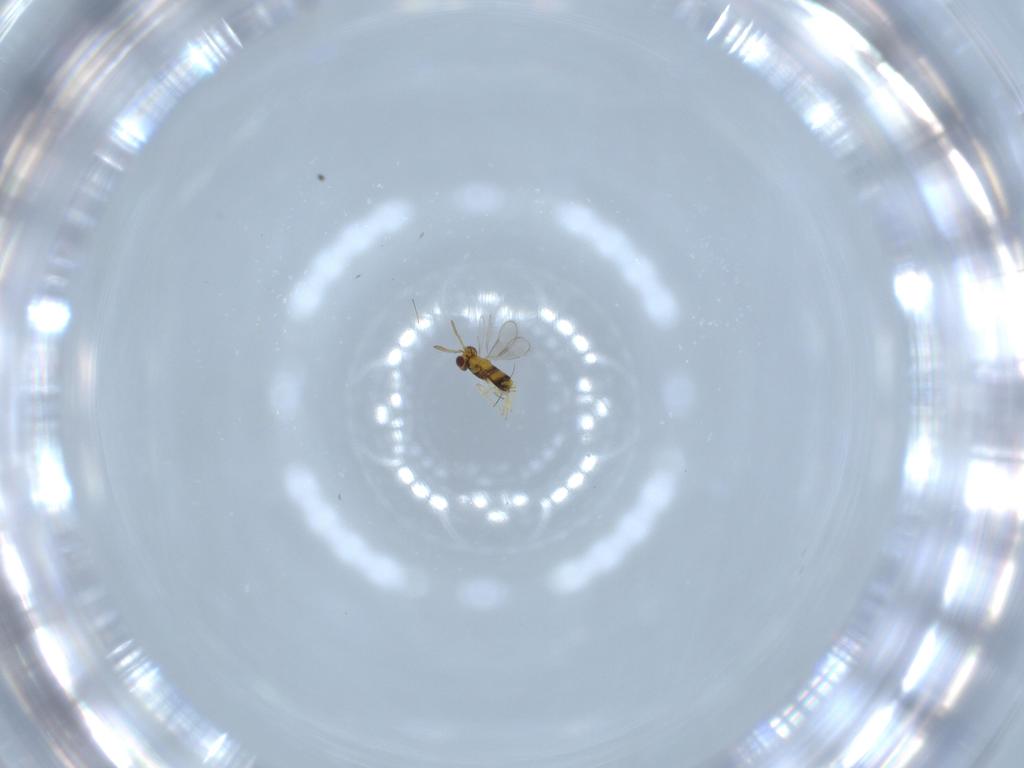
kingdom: Animalia
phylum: Arthropoda
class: Insecta
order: Hymenoptera
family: Aphelinidae
